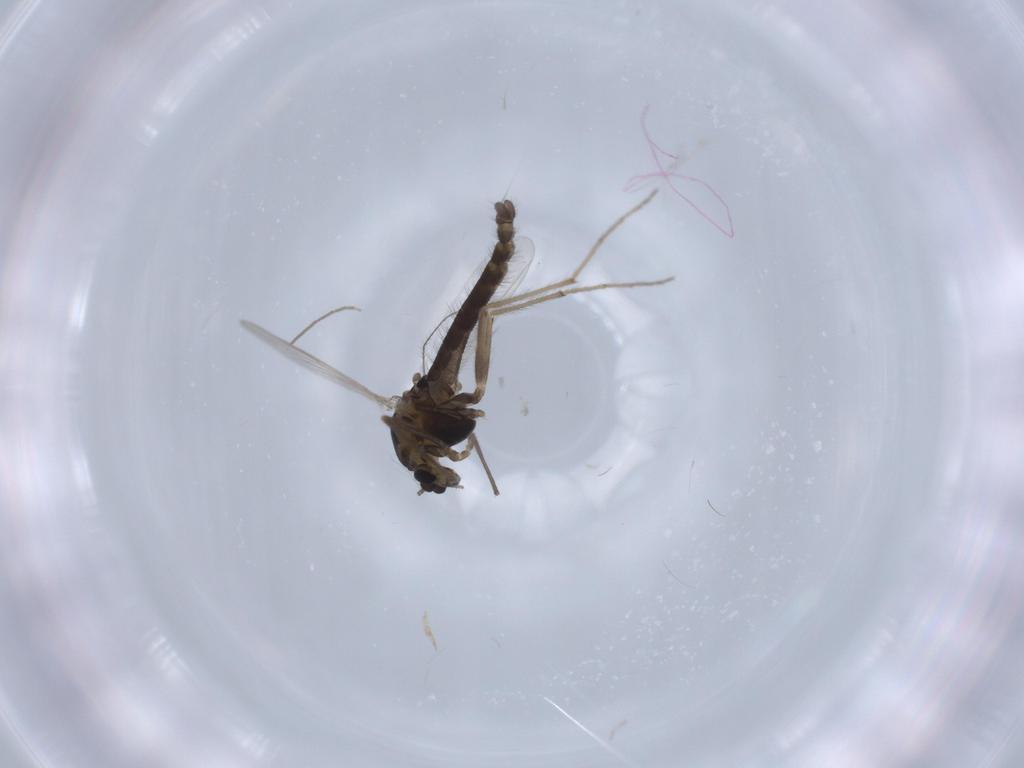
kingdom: Animalia
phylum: Arthropoda
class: Insecta
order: Diptera
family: Chironomidae
